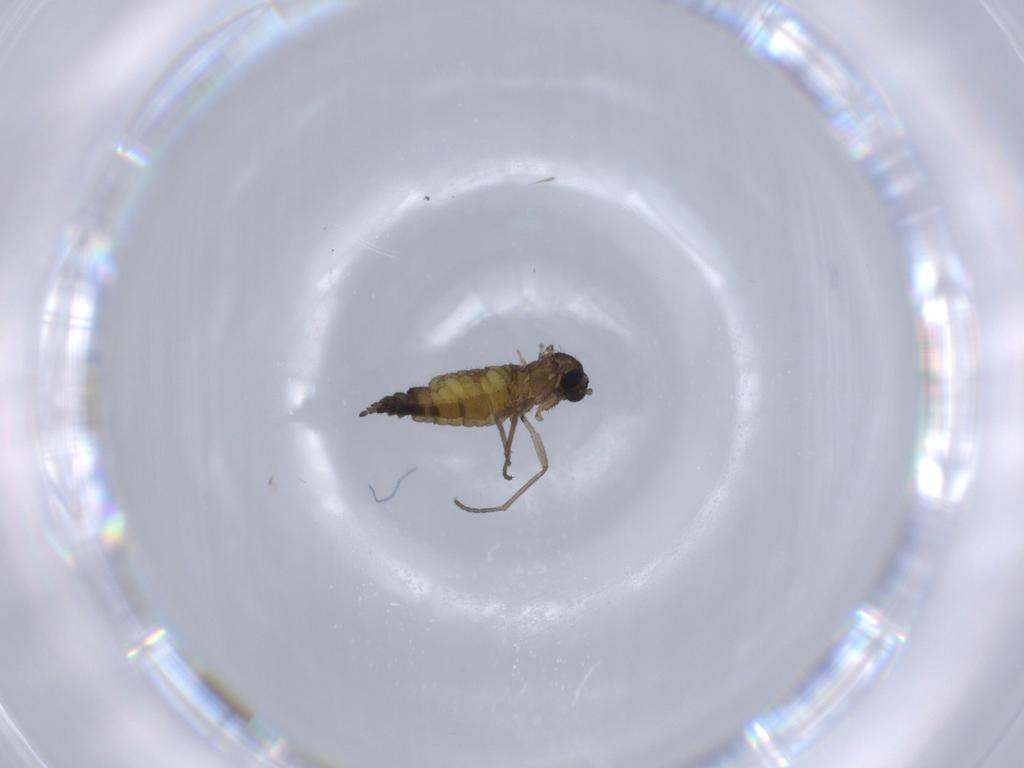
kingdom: Animalia
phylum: Arthropoda
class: Insecta
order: Diptera
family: Sciaridae
